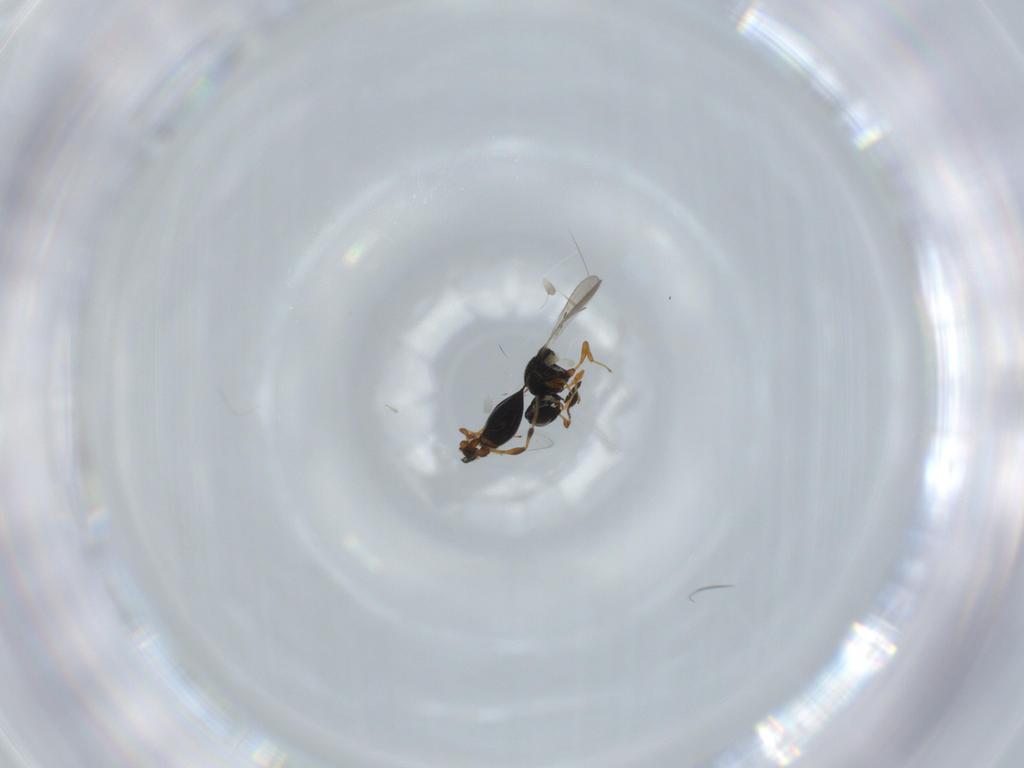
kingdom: Animalia
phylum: Arthropoda
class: Insecta
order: Hymenoptera
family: Platygastridae
